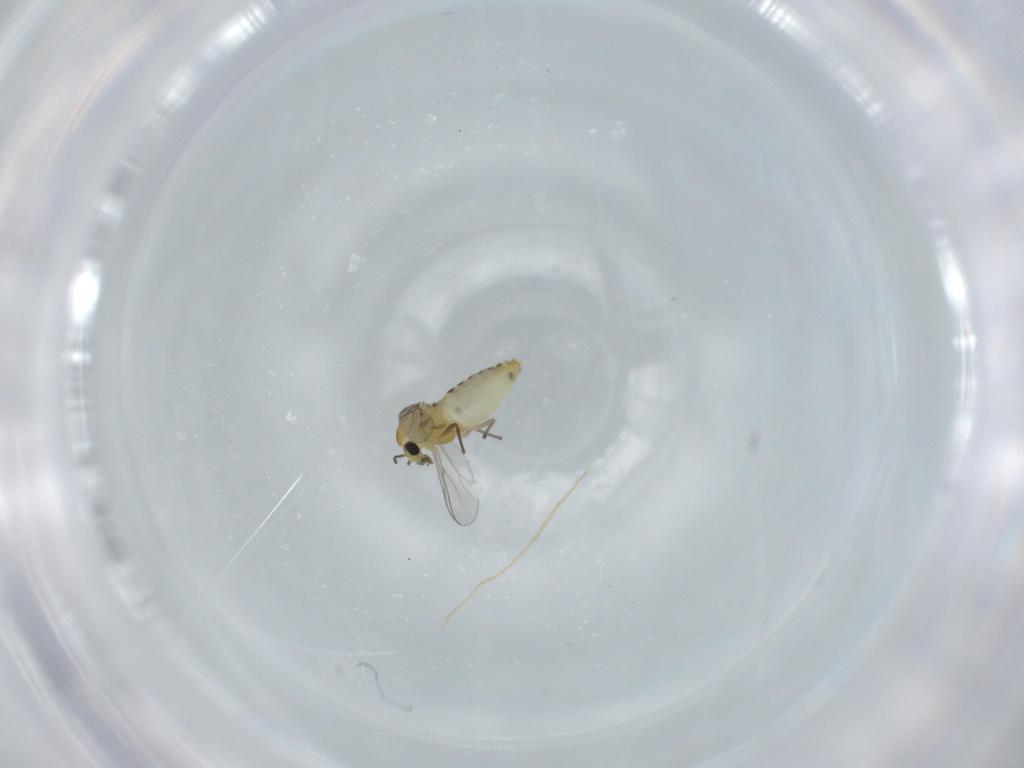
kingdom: Animalia
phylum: Arthropoda
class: Insecta
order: Diptera
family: Chironomidae
